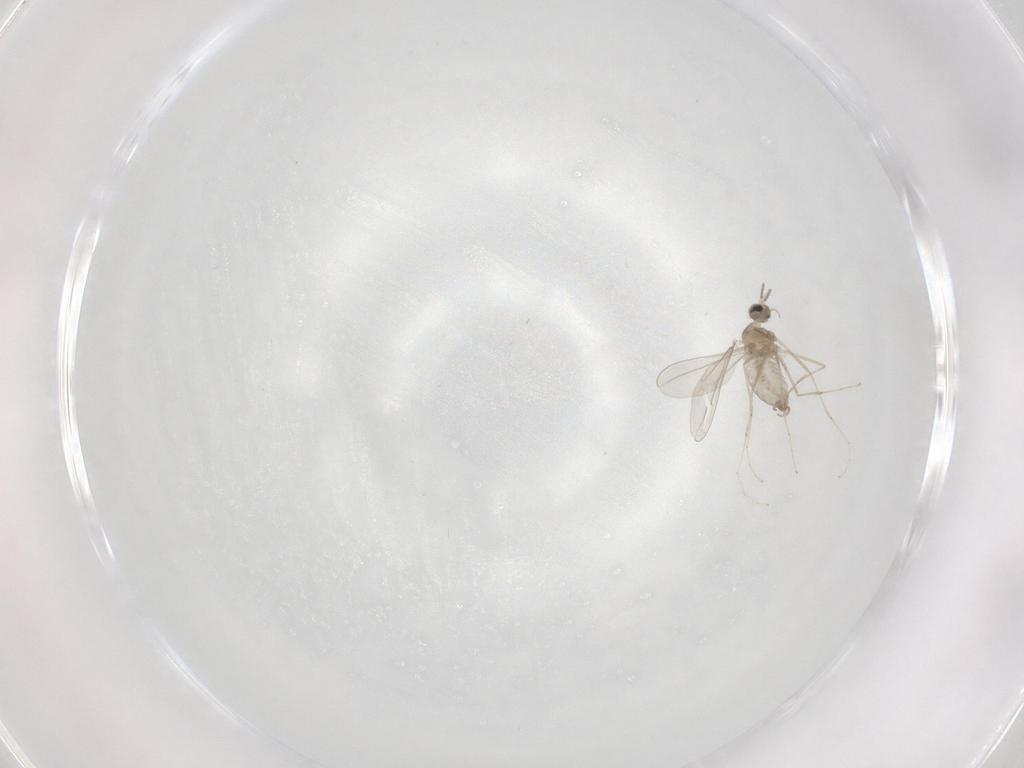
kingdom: Animalia
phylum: Arthropoda
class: Insecta
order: Diptera
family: Cecidomyiidae
